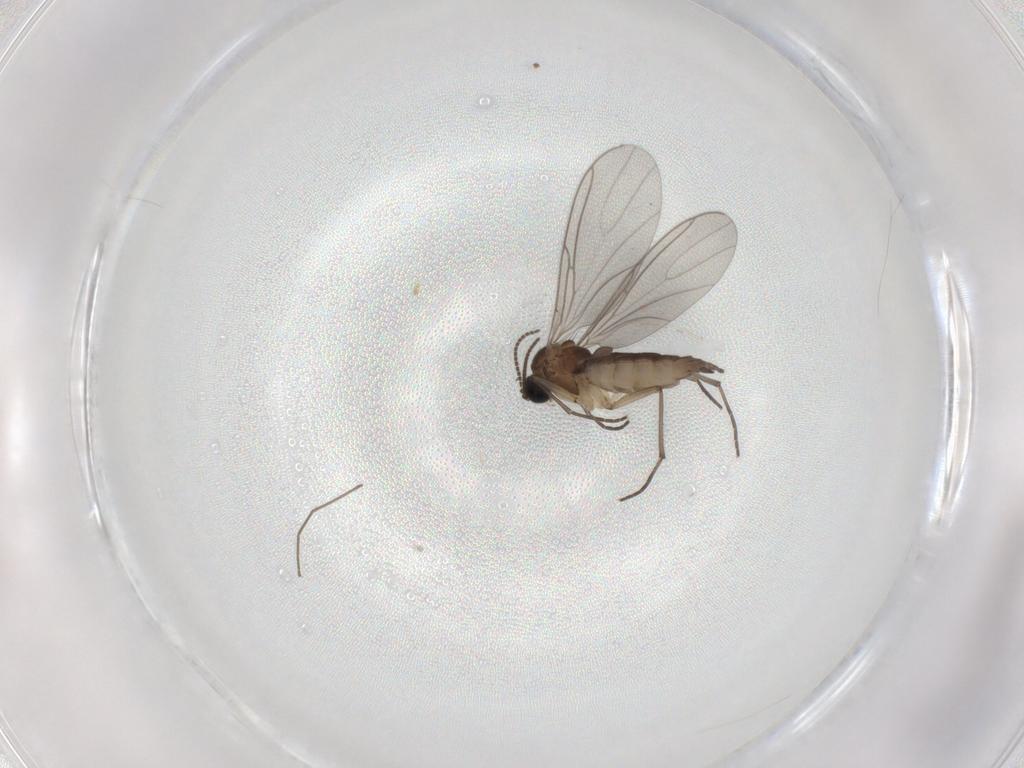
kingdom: Animalia
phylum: Arthropoda
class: Insecta
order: Diptera
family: Sciaridae
